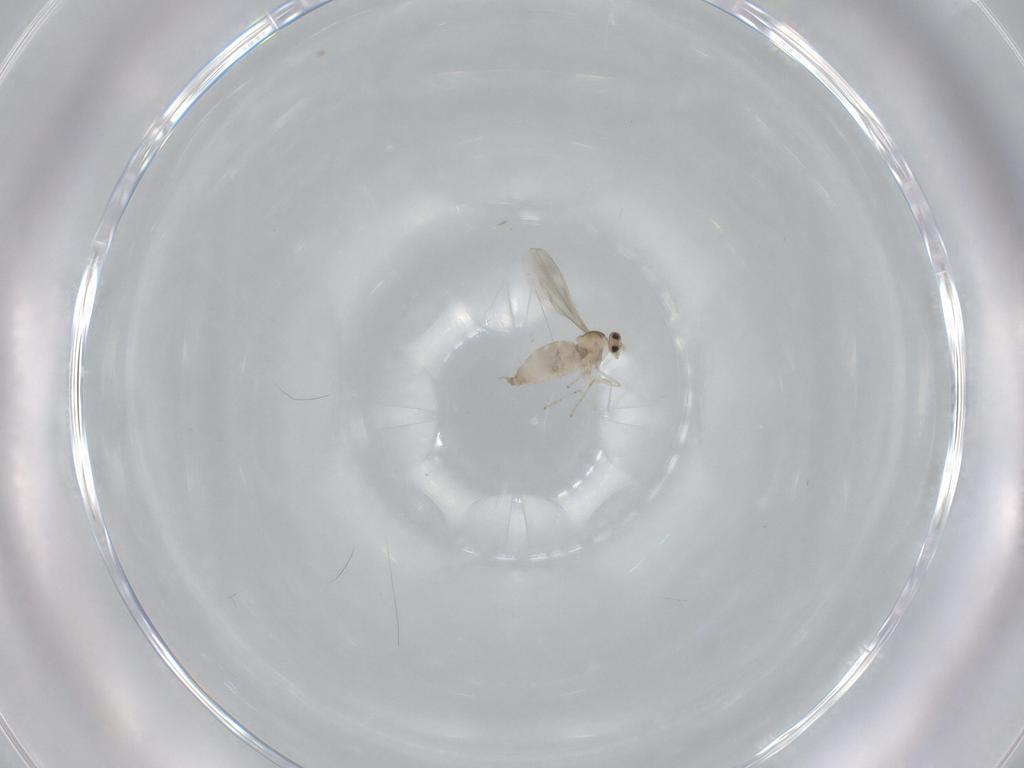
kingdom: Animalia
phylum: Arthropoda
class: Insecta
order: Diptera
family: Cecidomyiidae
